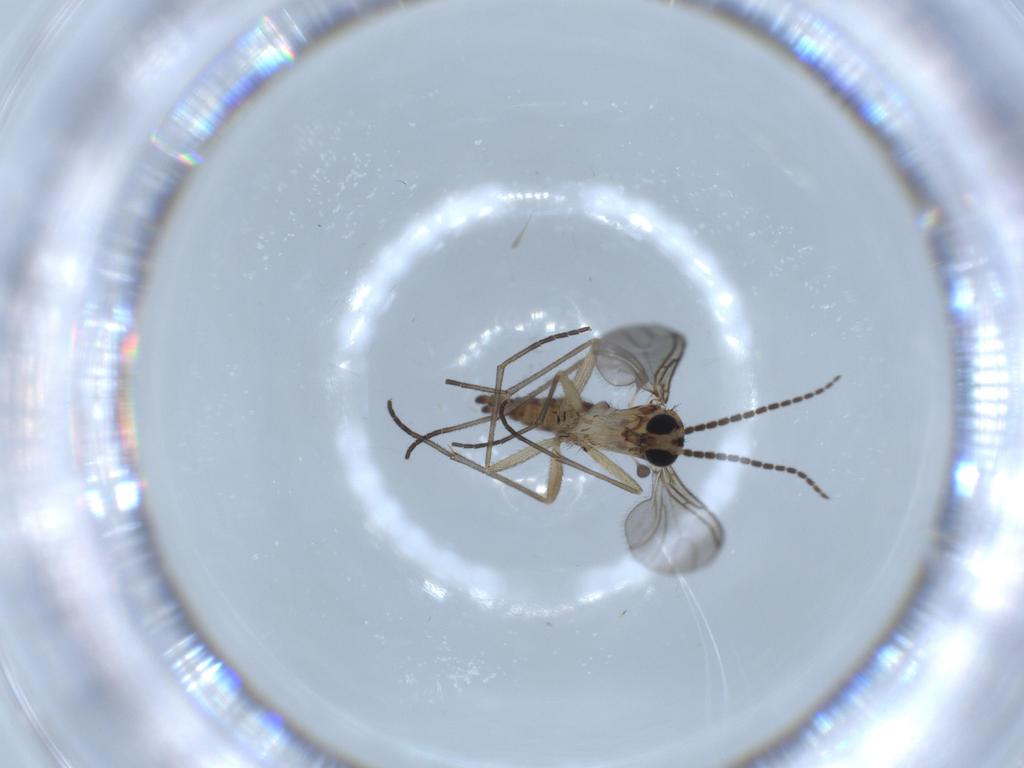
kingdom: Animalia
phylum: Arthropoda
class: Insecta
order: Diptera
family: Sciaridae
